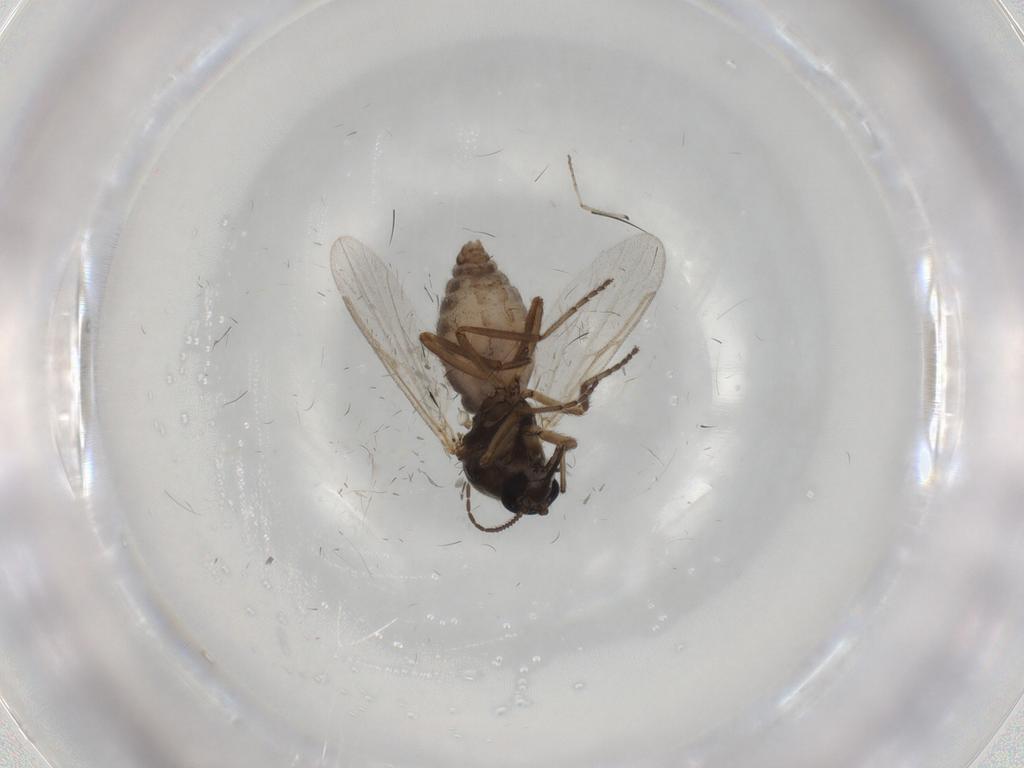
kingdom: Animalia
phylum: Arthropoda
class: Insecta
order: Diptera
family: Ceratopogonidae
